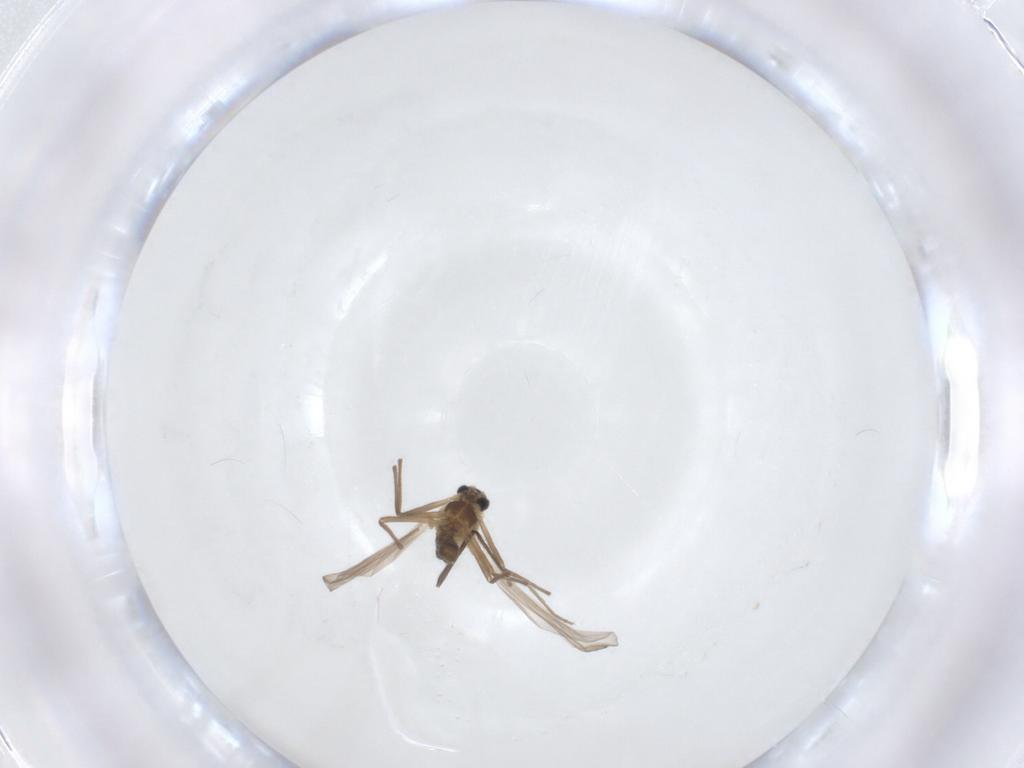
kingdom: Animalia
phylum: Arthropoda
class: Insecta
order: Diptera
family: Chironomidae
